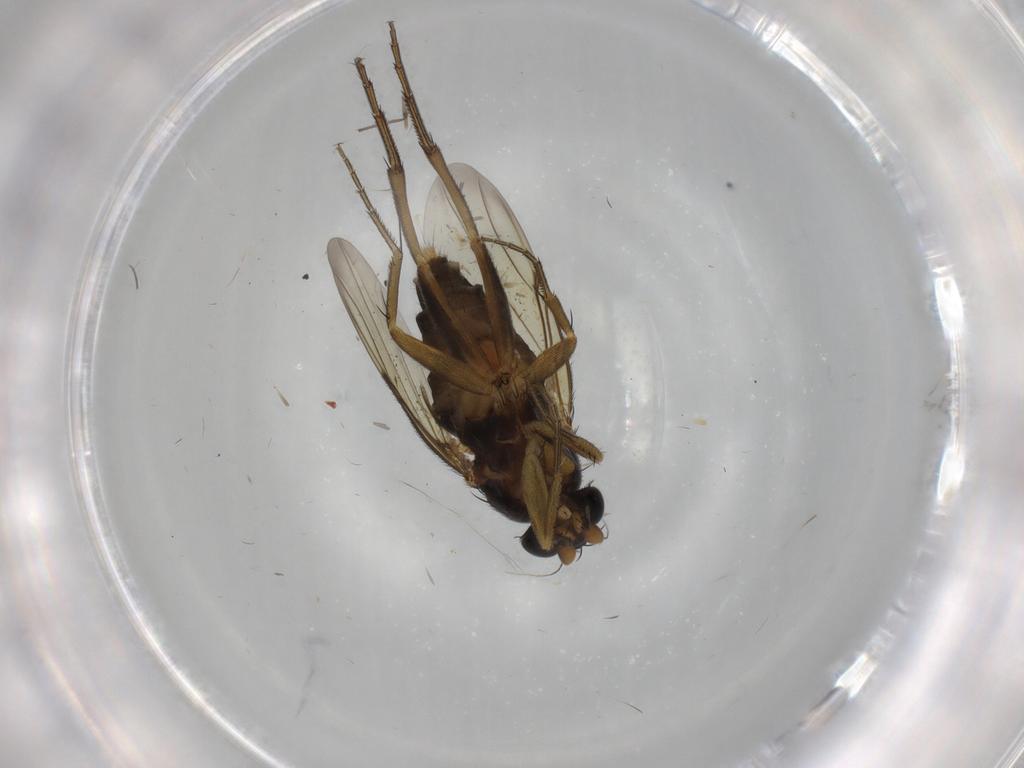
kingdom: Animalia
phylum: Arthropoda
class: Insecta
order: Diptera
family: Phoridae
